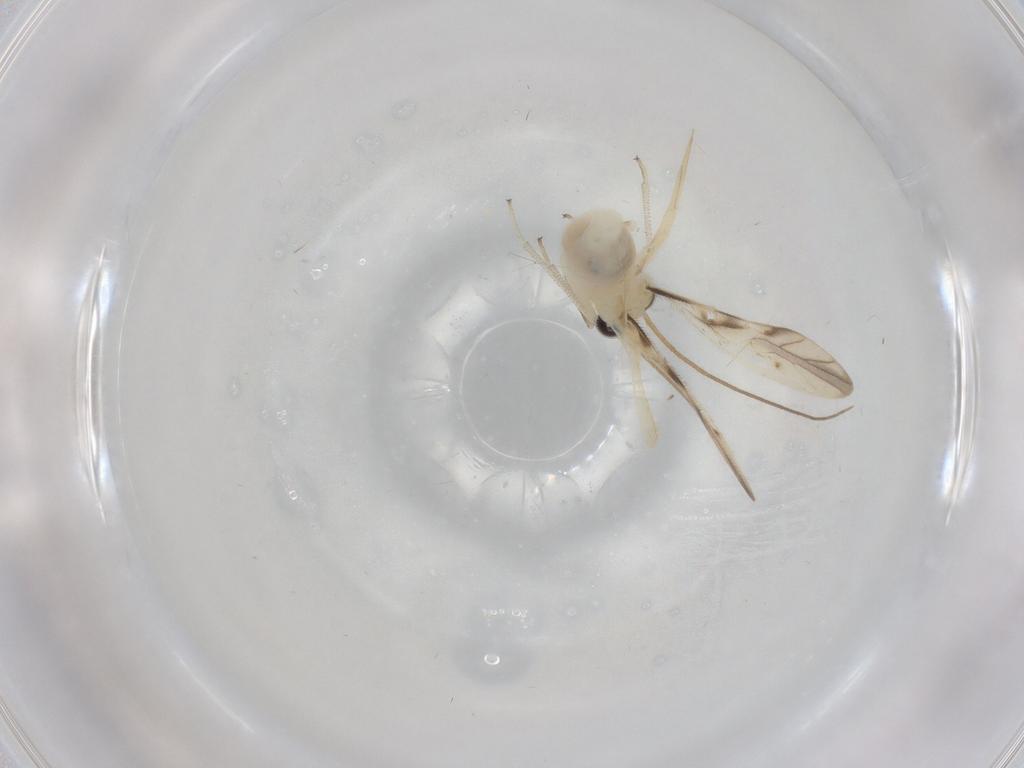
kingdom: Animalia
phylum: Arthropoda
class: Insecta
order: Psocodea
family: Caeciliusidae
